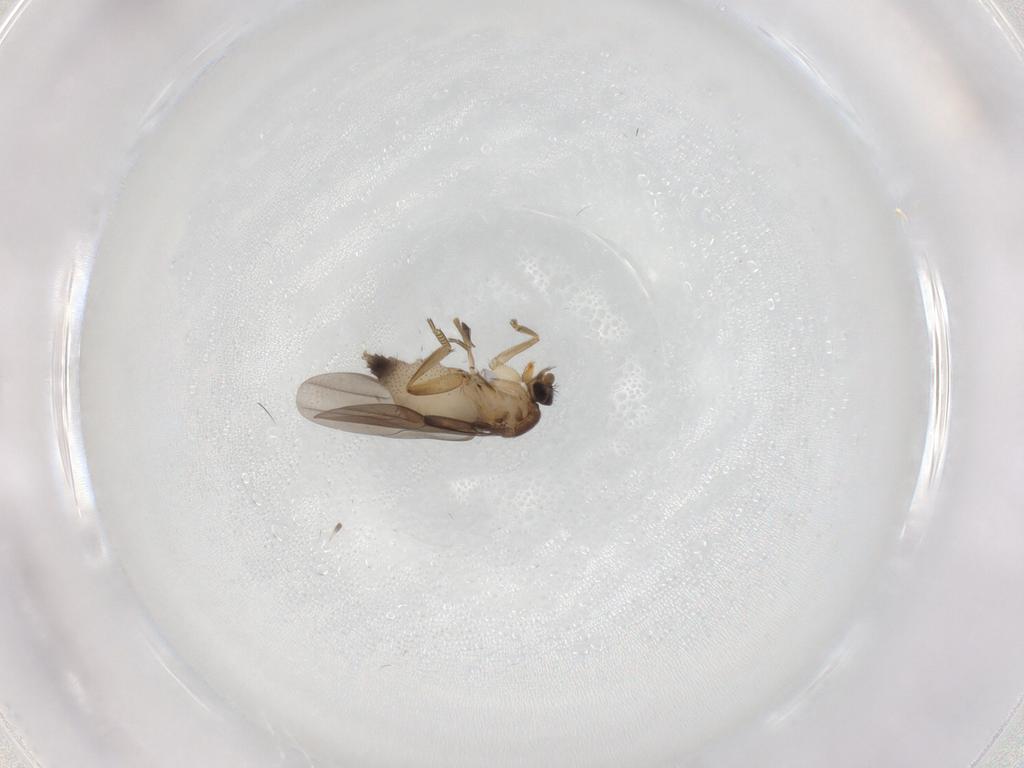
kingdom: Animalia
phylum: Arthropoda
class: Insecta
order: Diptera
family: Phoridae
